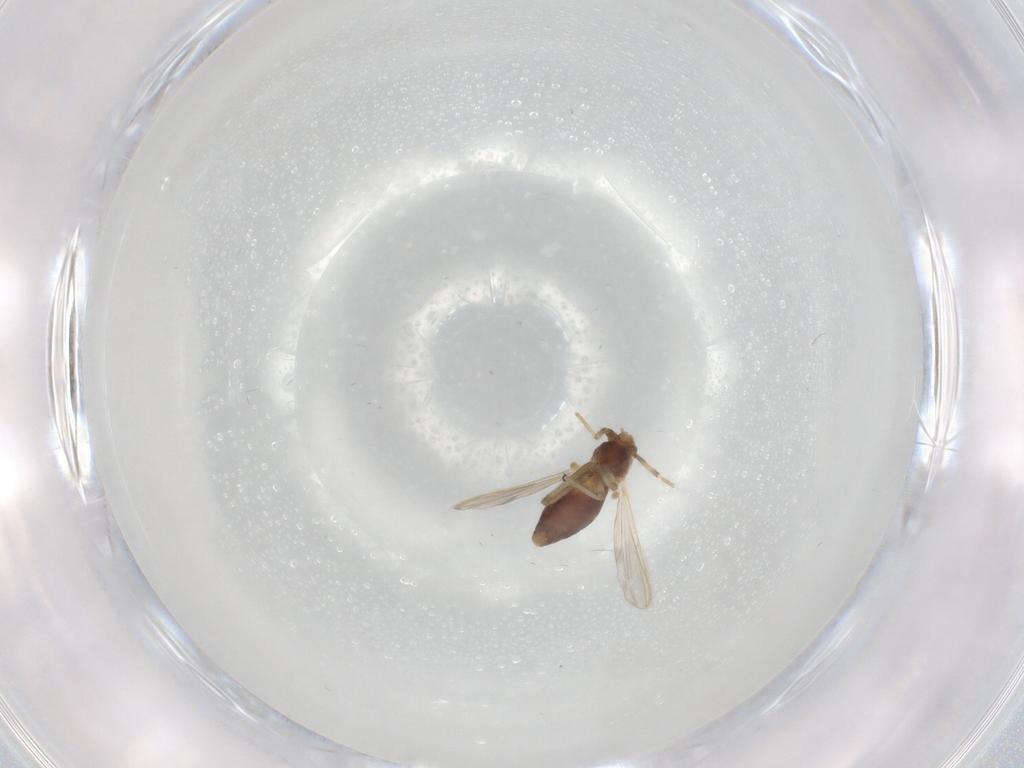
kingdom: Animalia
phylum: Arthropoda
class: Insecta
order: Diptera
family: Chironomidae
